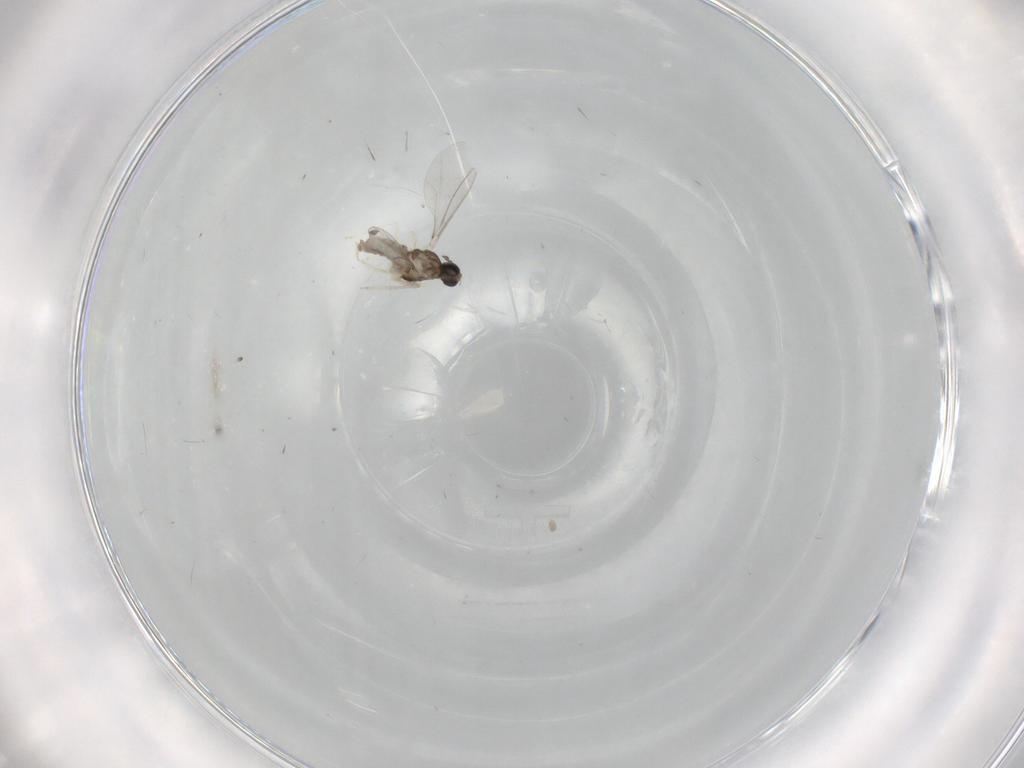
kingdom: Animalia
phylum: Arthropoda
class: Insecta
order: Diptera
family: Cecidomyiidae
